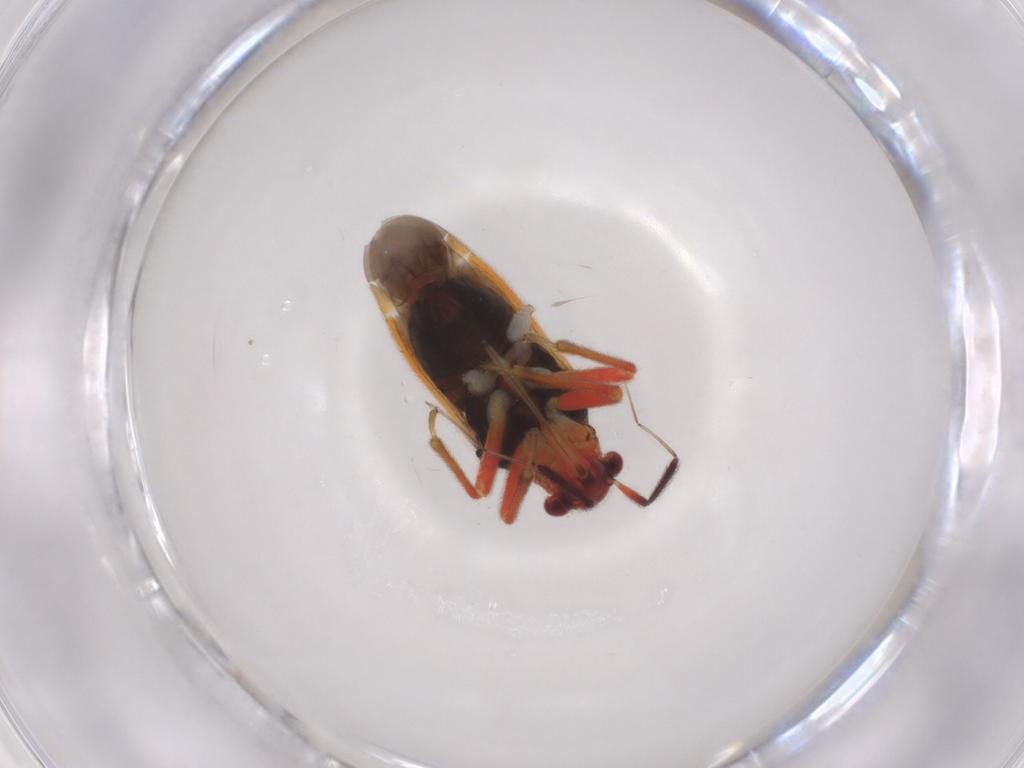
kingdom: Animalia
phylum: Arthropoda
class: Insecta
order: Hemiptera
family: Miridae
